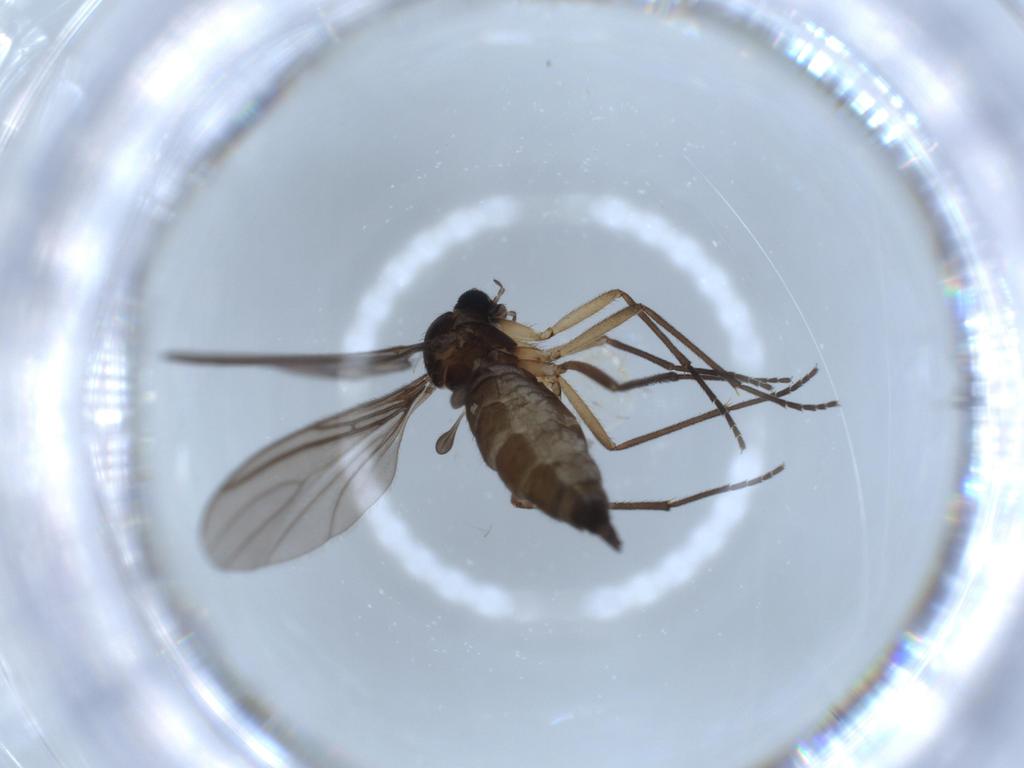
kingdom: Animalia
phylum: Arthropoda
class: Insecta
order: Diptera
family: Sciaridae
